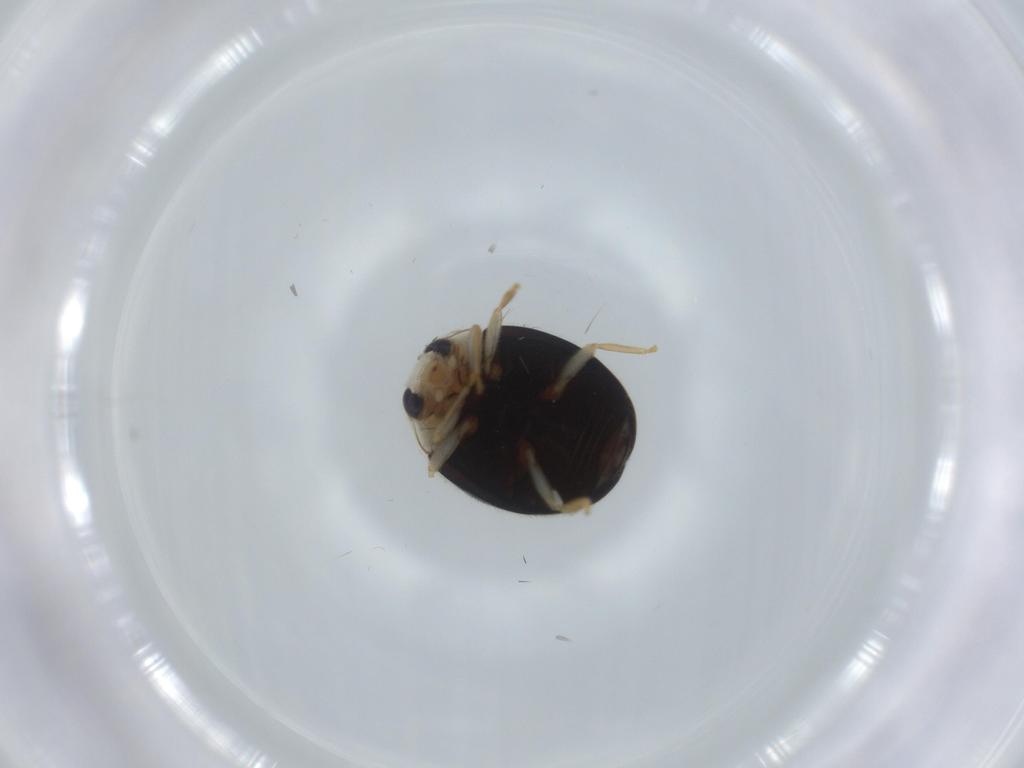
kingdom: Animalia
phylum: Arthropoda
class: Insecta
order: Coleoptera
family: Coccinellidae
